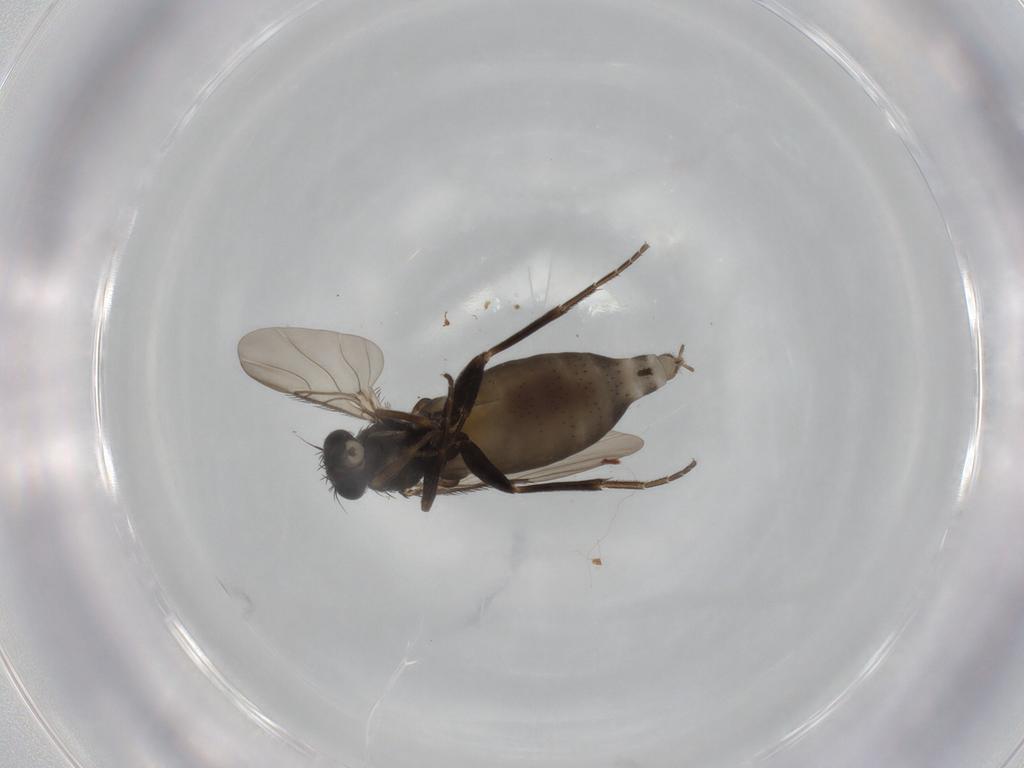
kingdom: Animalia
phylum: Arthropoda
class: Insecta
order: Diptera
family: Phoridae
